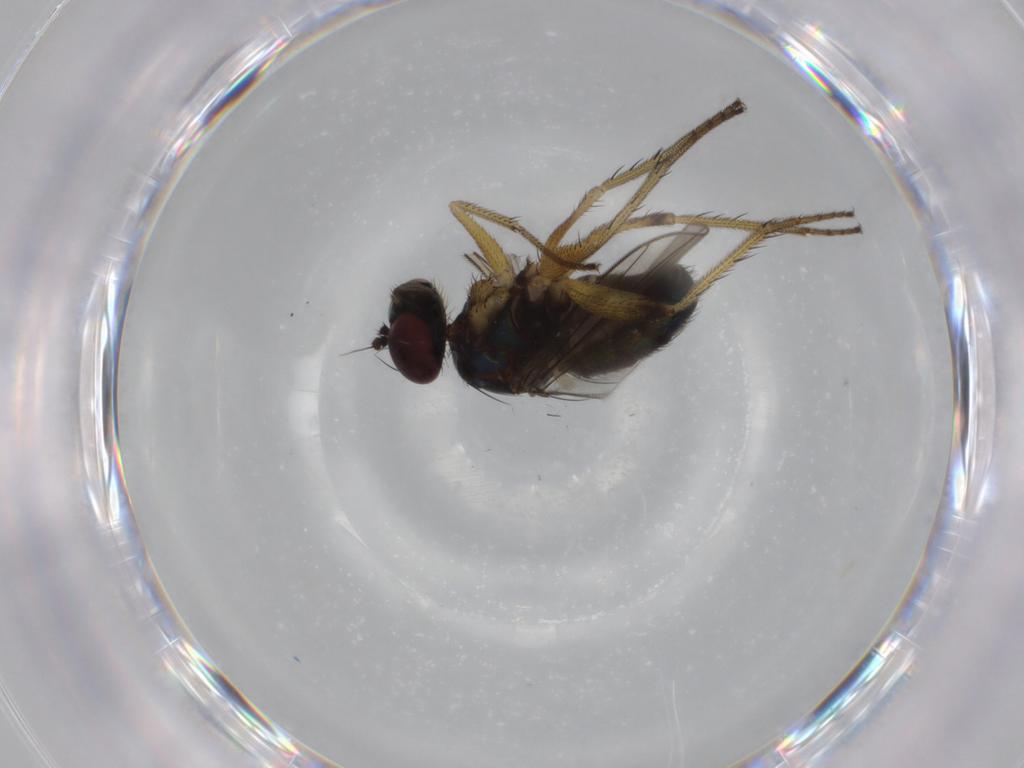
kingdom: Animalia
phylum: Arthropoda
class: Insecta
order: Diptera
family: Dolichopodidae
